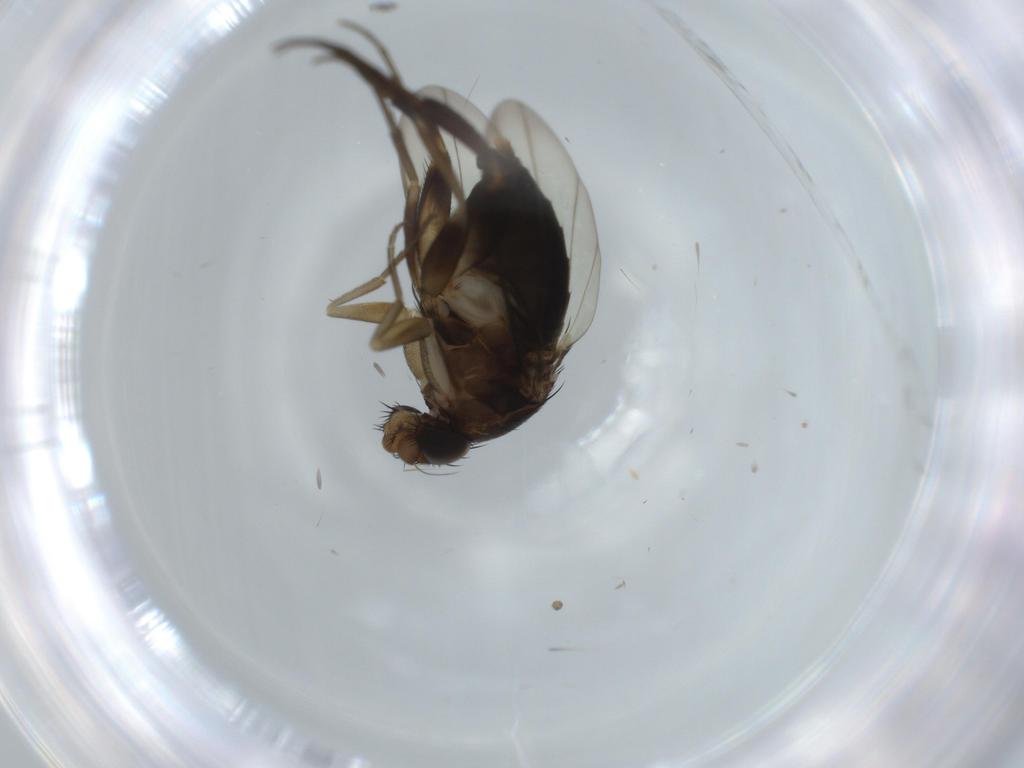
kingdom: Animalia
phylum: Arthropoda
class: Insecta
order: Diptera
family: Phoridae
